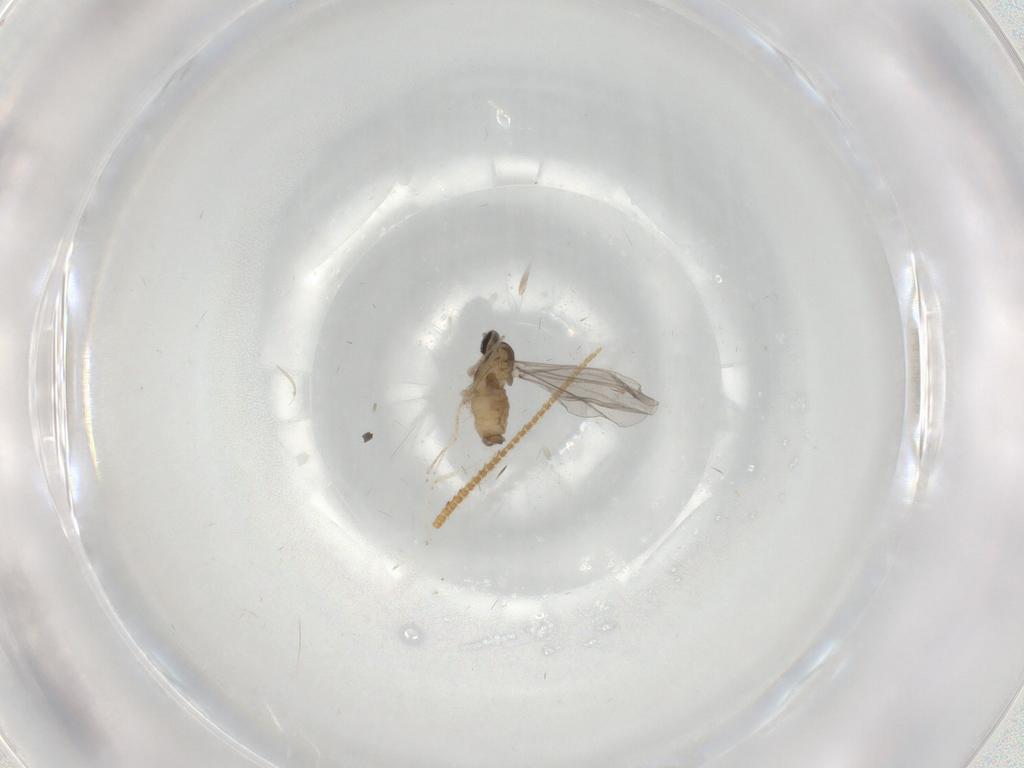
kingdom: Animalia
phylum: Arthropoda
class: Insecta
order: Diptera
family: Cecidomyiidae
